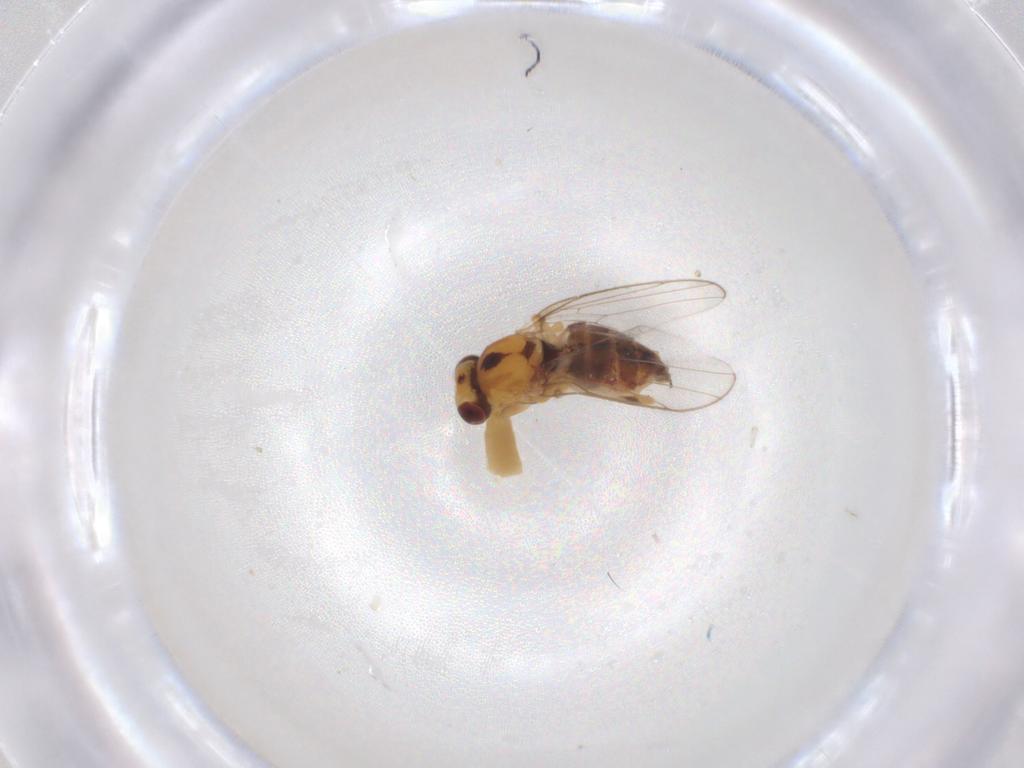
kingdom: Animalia
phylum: Arthropoda
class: Insecta
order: Diptera
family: Chloropidae
